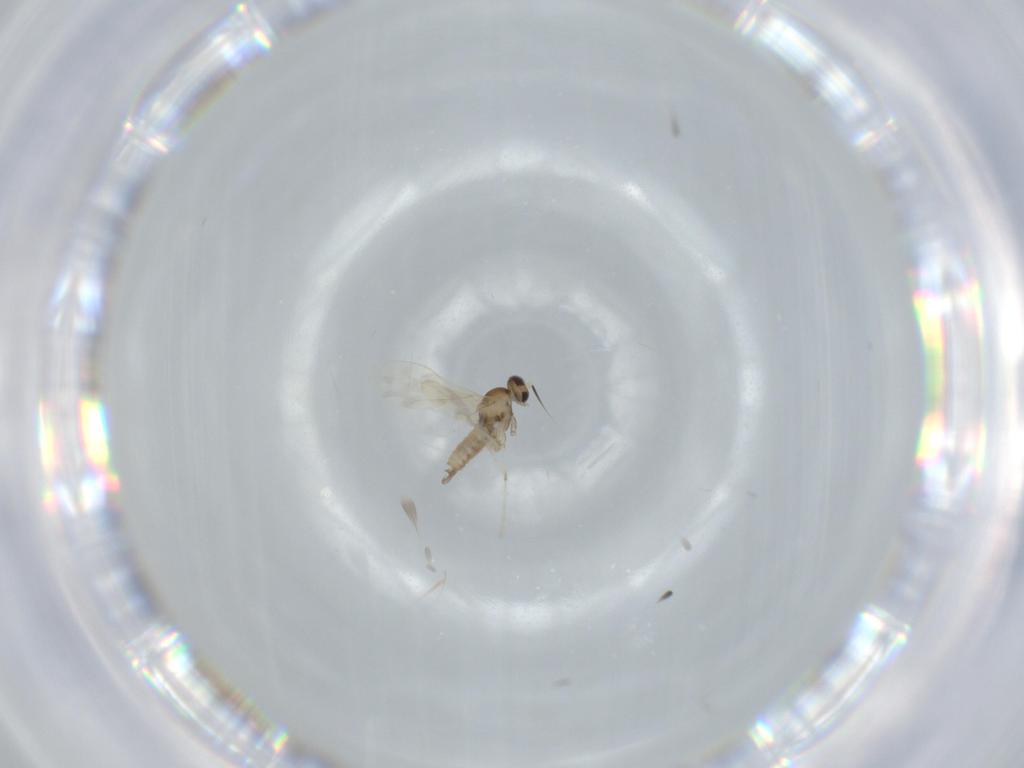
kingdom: Animalia
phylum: Arthropoda
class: Insecta
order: Diptera
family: Cecidomyiidae
